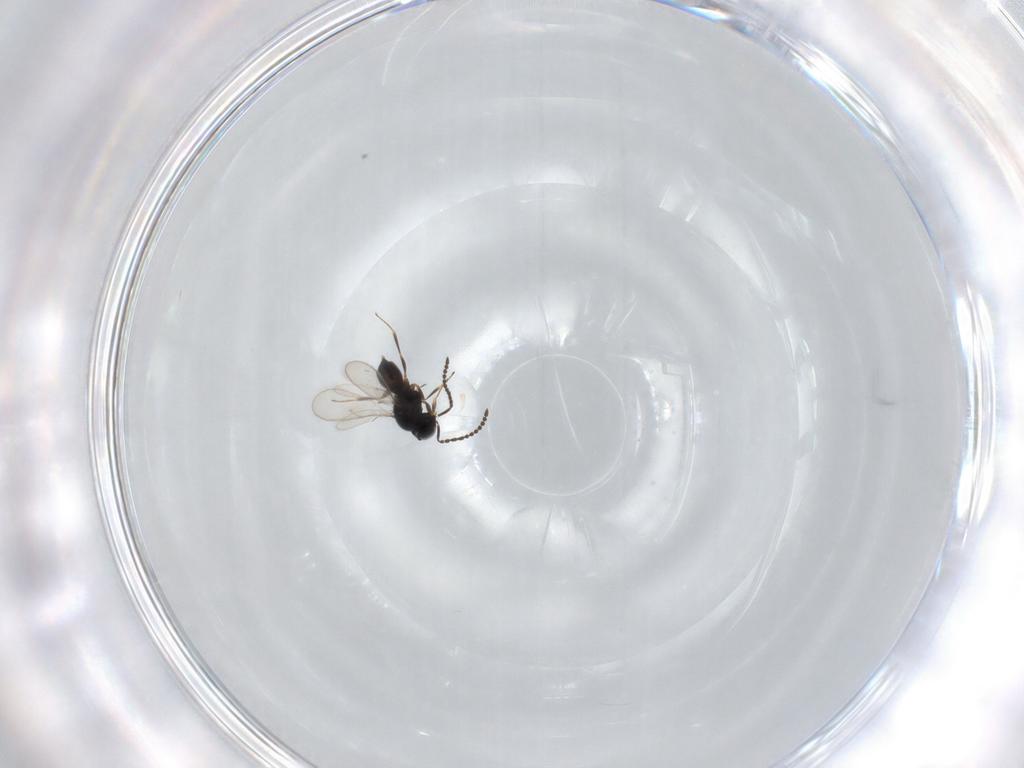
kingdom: Animalia
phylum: Arthropoda
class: Insecta
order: Hymenoptera
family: Scelionidae
